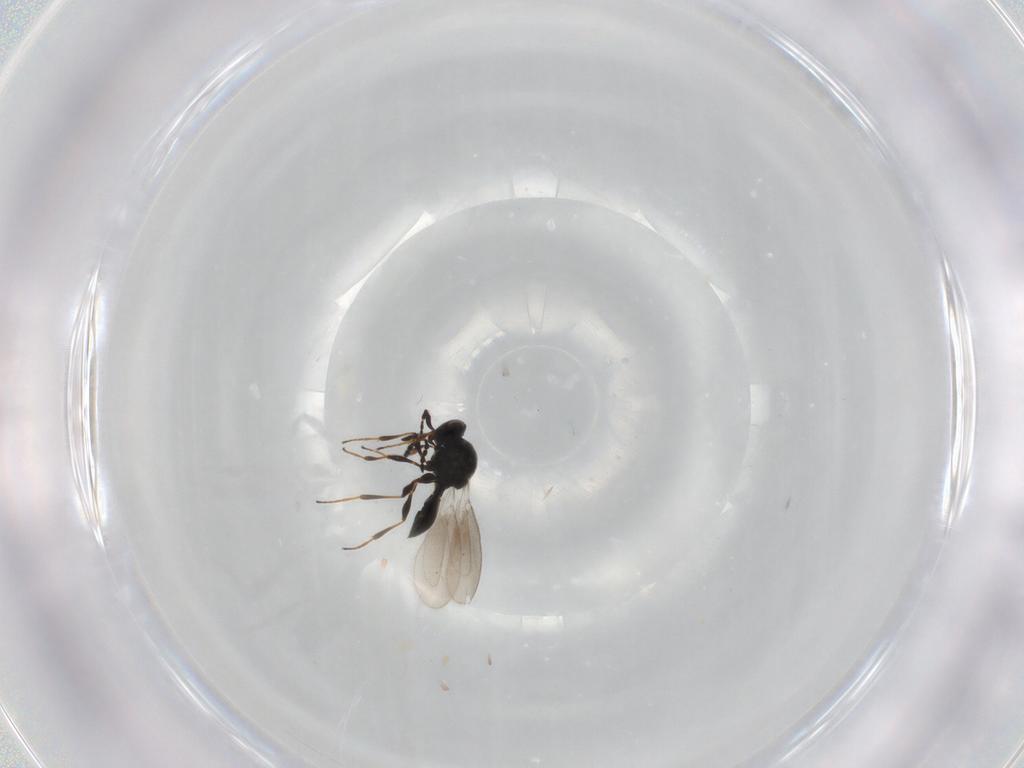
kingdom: Animalia
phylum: Arthropoda
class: Insecta
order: Hymenoptera
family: Platygastridae
